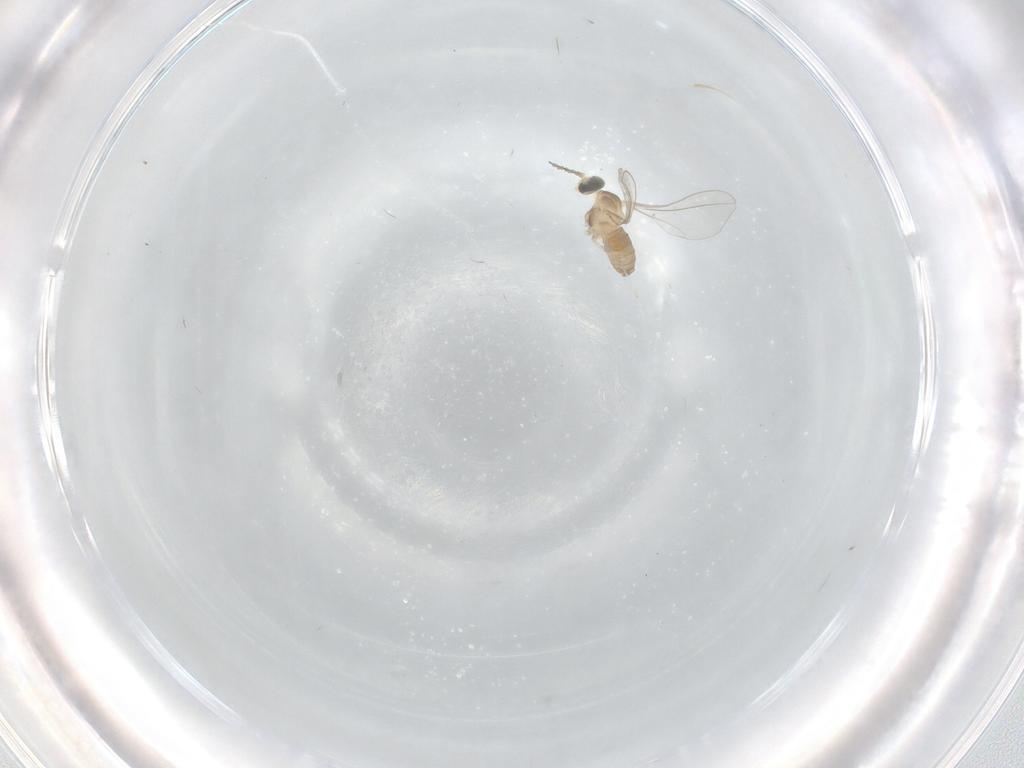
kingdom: Animalia
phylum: Arthropoda
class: Insecta
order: Diptera
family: Cecidomyiidae
